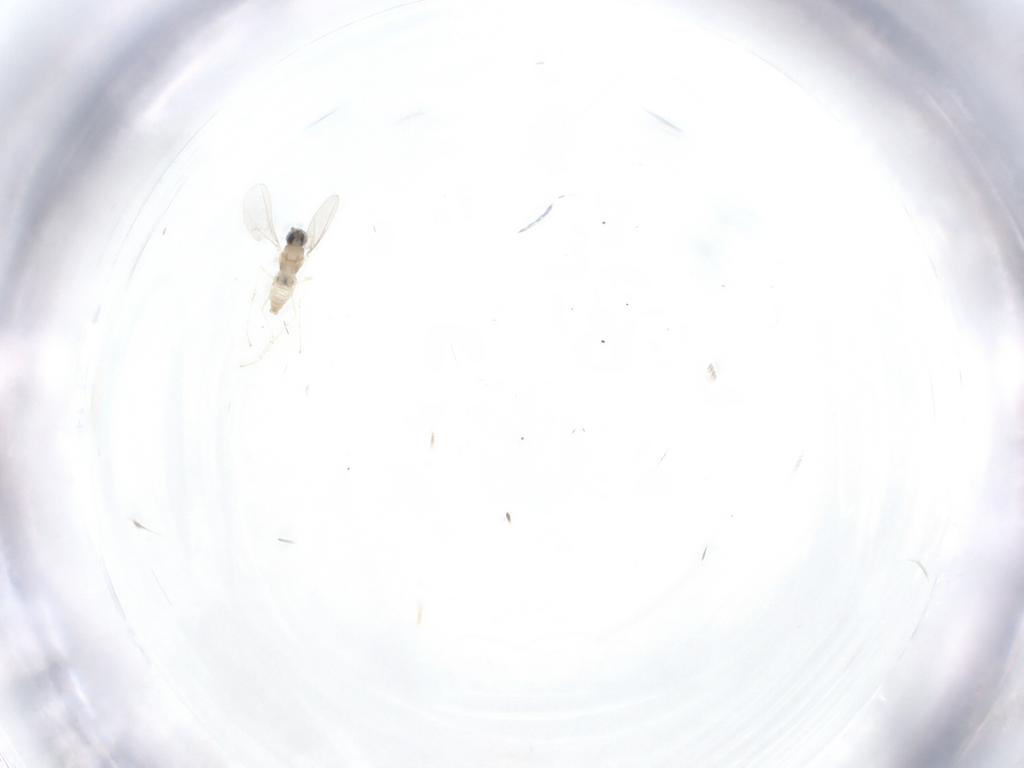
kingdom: Animalia
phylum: Arthropoda
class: Insecta
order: Diptera
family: Cecidomyiidae
